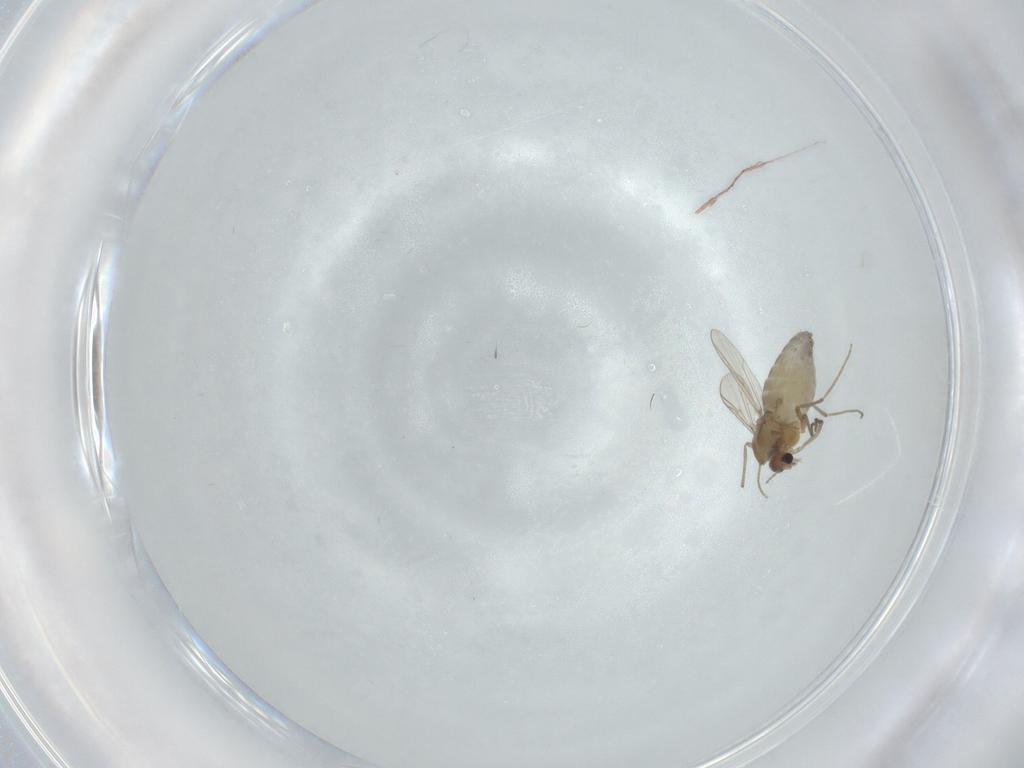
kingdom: Animalia
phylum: Arthropoda
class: Insecta
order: Diptera
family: Chironomidae
